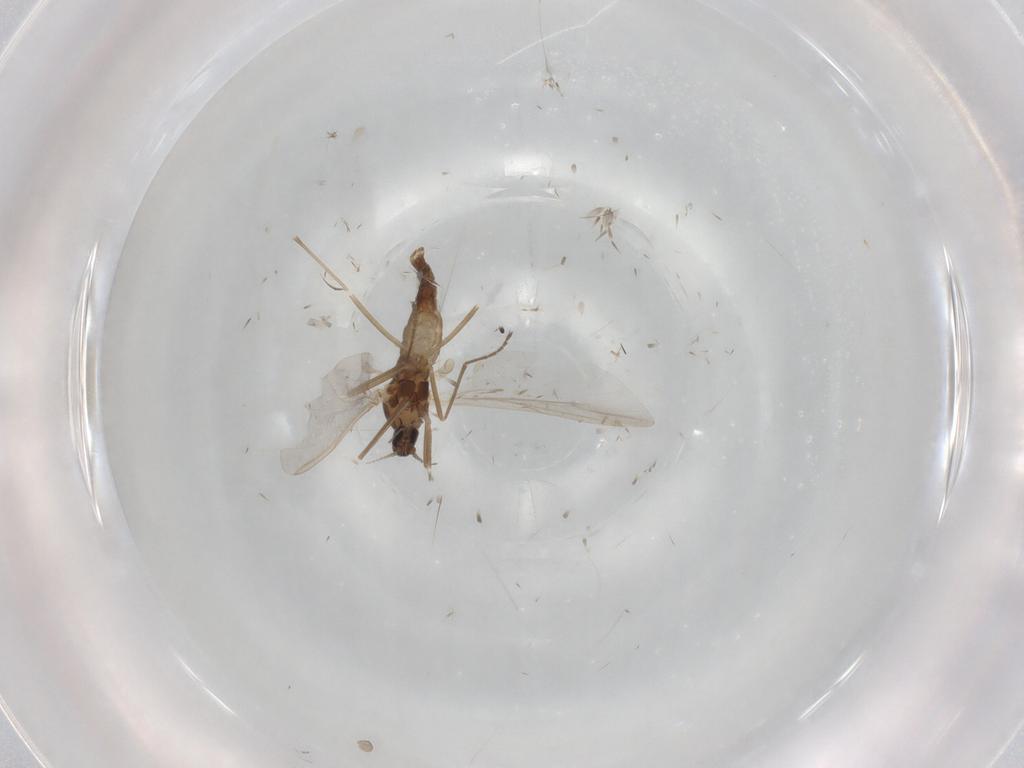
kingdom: Animalia
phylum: Arthropoda
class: Insecta
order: Diptera
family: Cecidomyiidae
